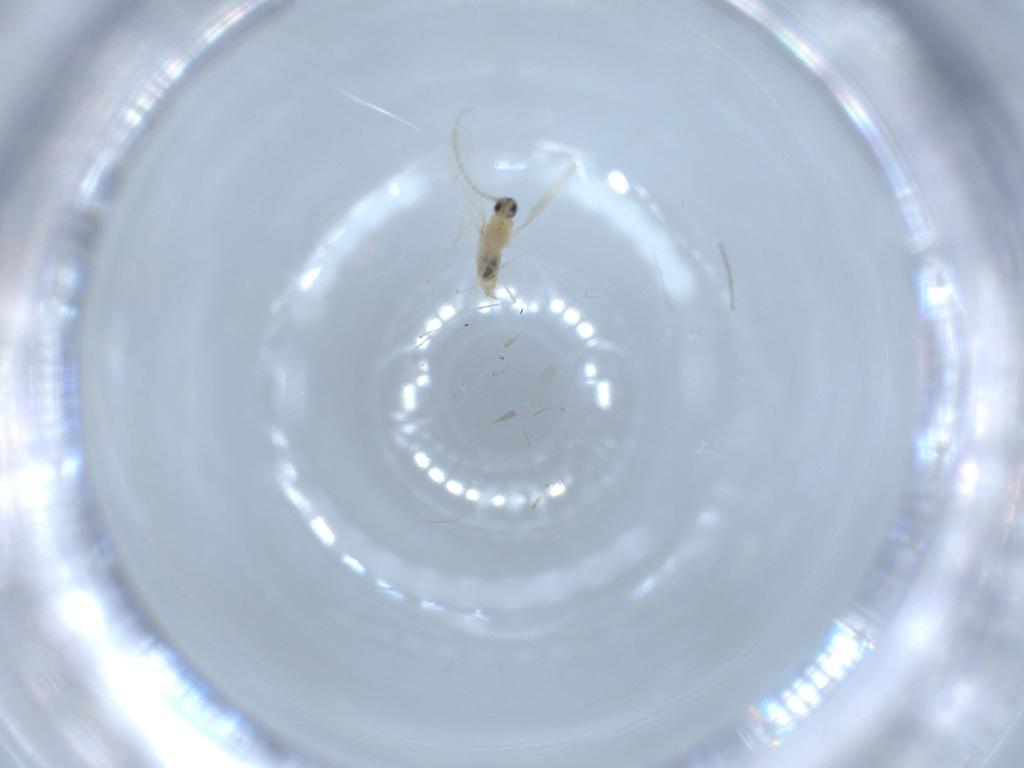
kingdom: Animalia
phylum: Arthropoda
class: Insecta
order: Diptera
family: Cecidomyiidae
